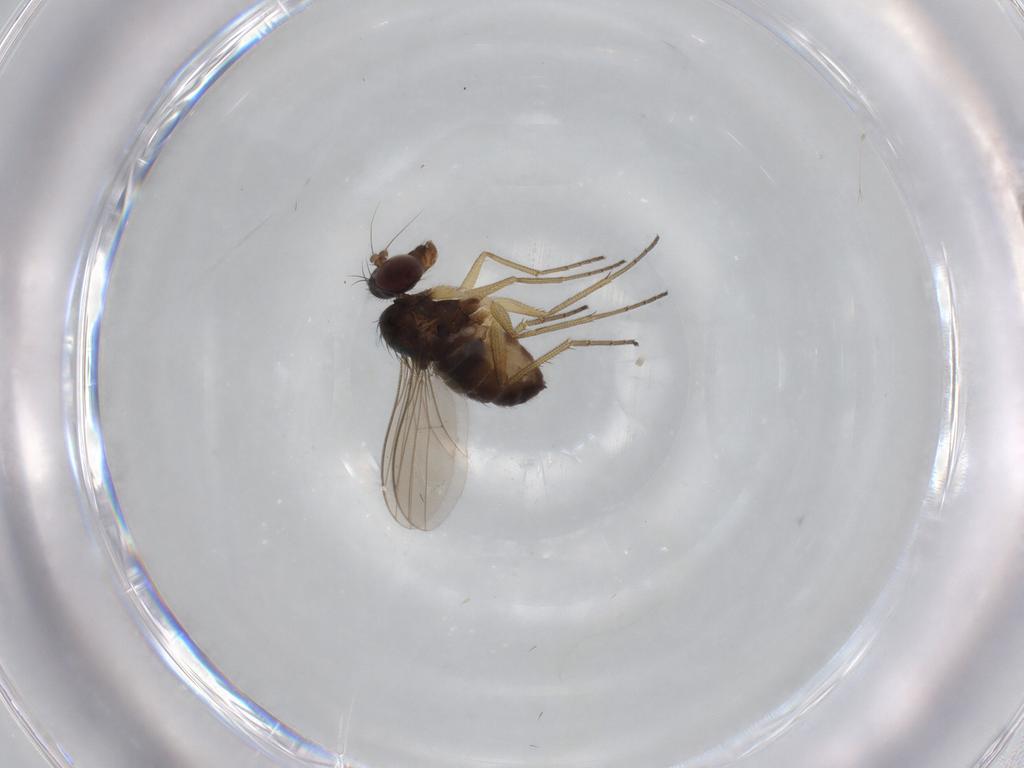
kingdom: Animalia
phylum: Arthropoda
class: Insecta
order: Diptera
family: Dolichopodidae
